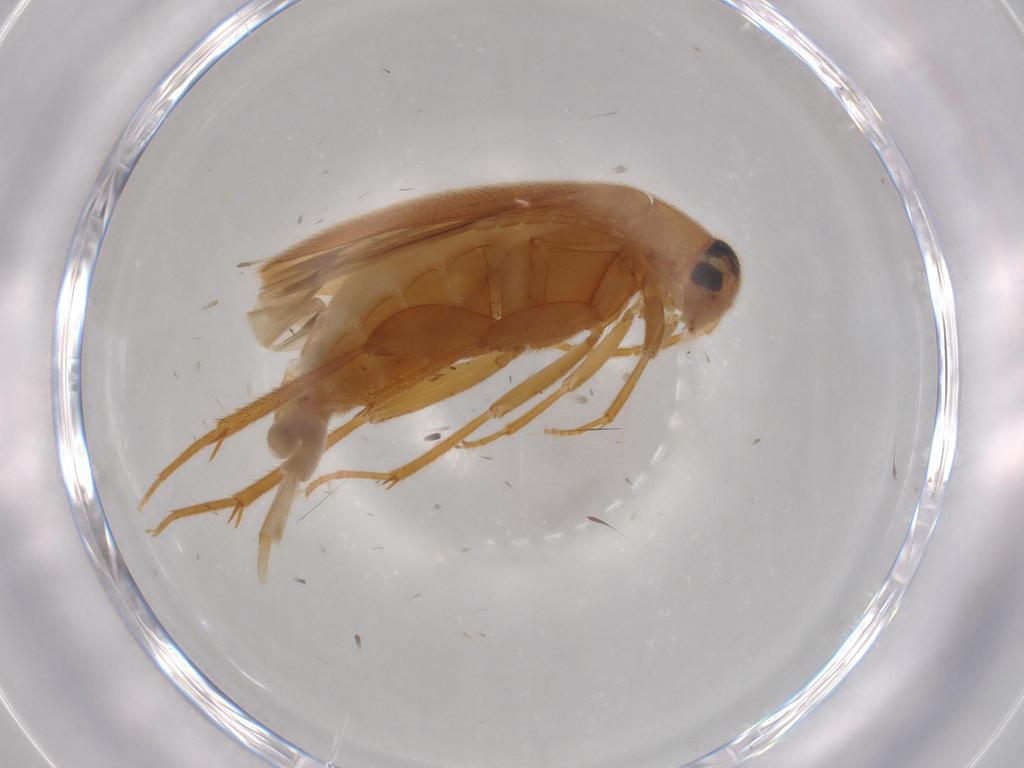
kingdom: Animalia
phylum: Arthropoda
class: Insecta
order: Coleoptera
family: Scraptiidae
